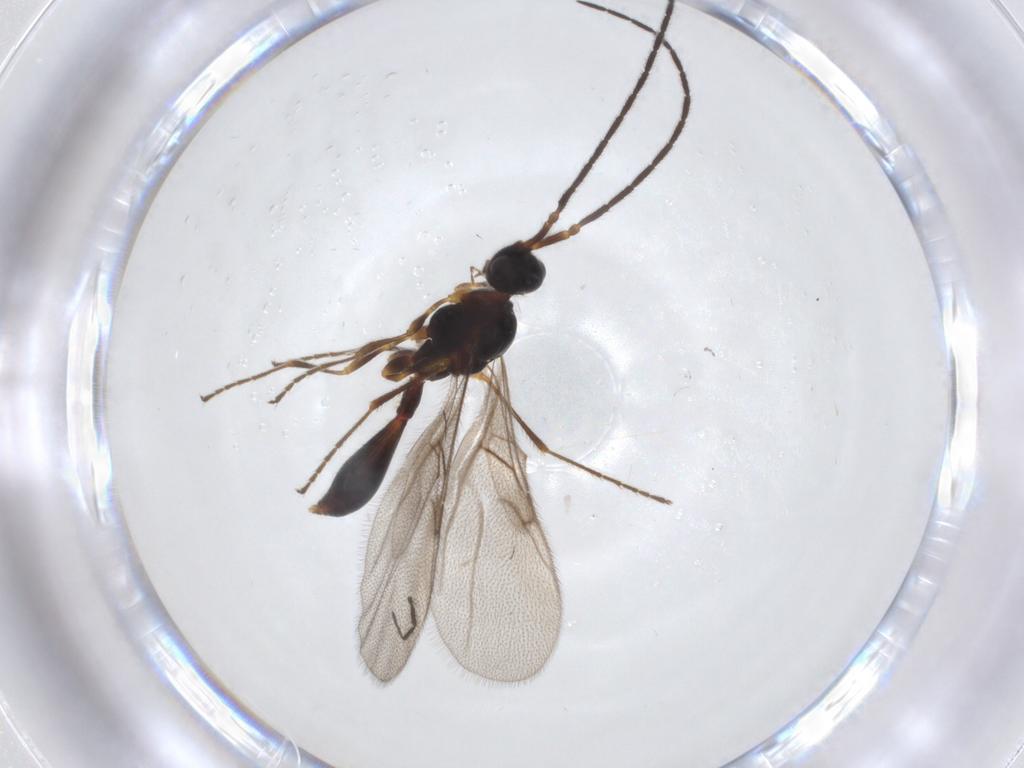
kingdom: Animalia
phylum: Arthropoda
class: Insecta
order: Hymenoptera
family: Diapriidae
